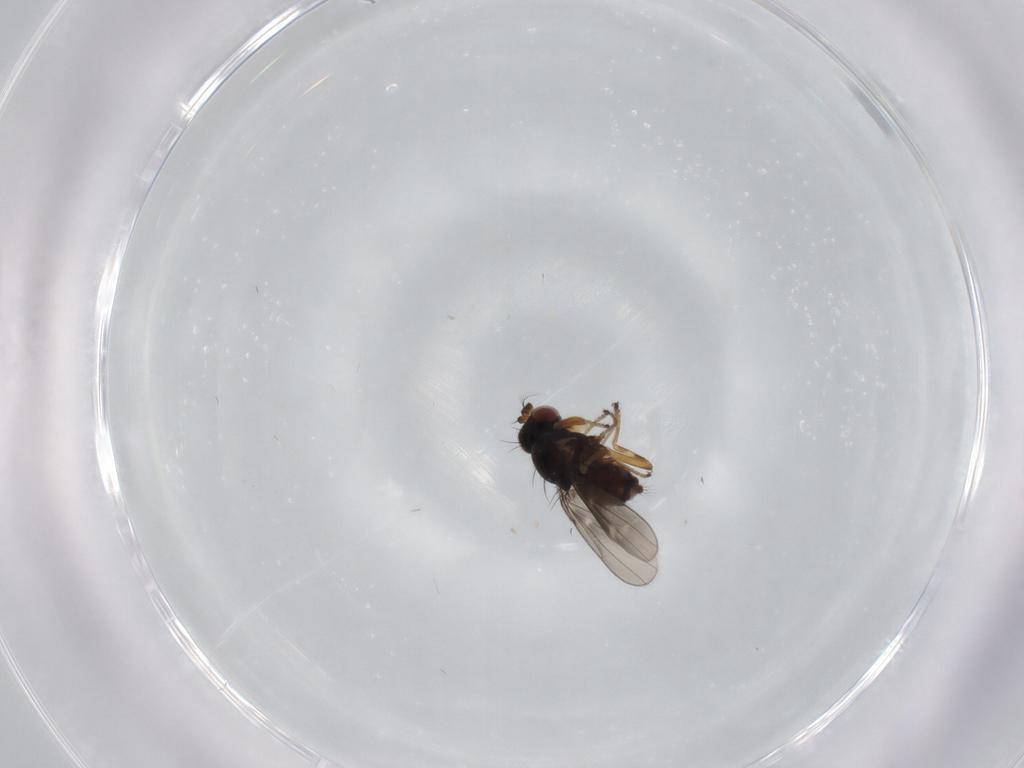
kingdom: Animalia
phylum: Arthropoda
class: Insecta
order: Diptera
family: Ephydridae
